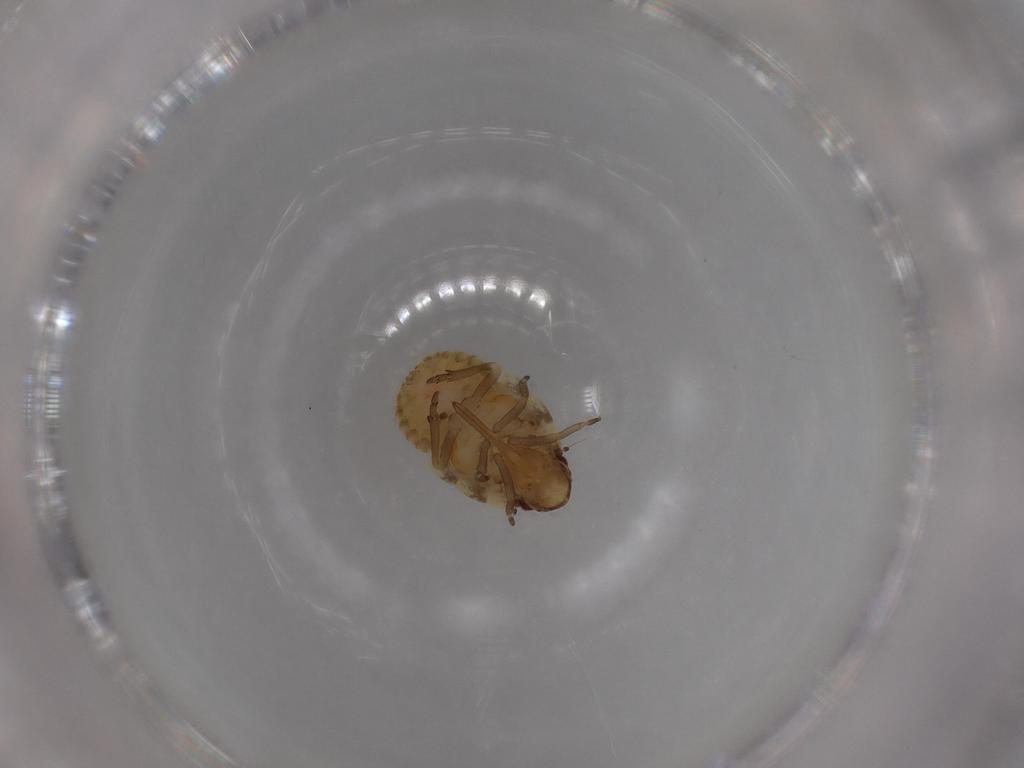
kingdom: Animalia
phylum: Arthropoda
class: Insecta
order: Hemiptera
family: Flatidae
